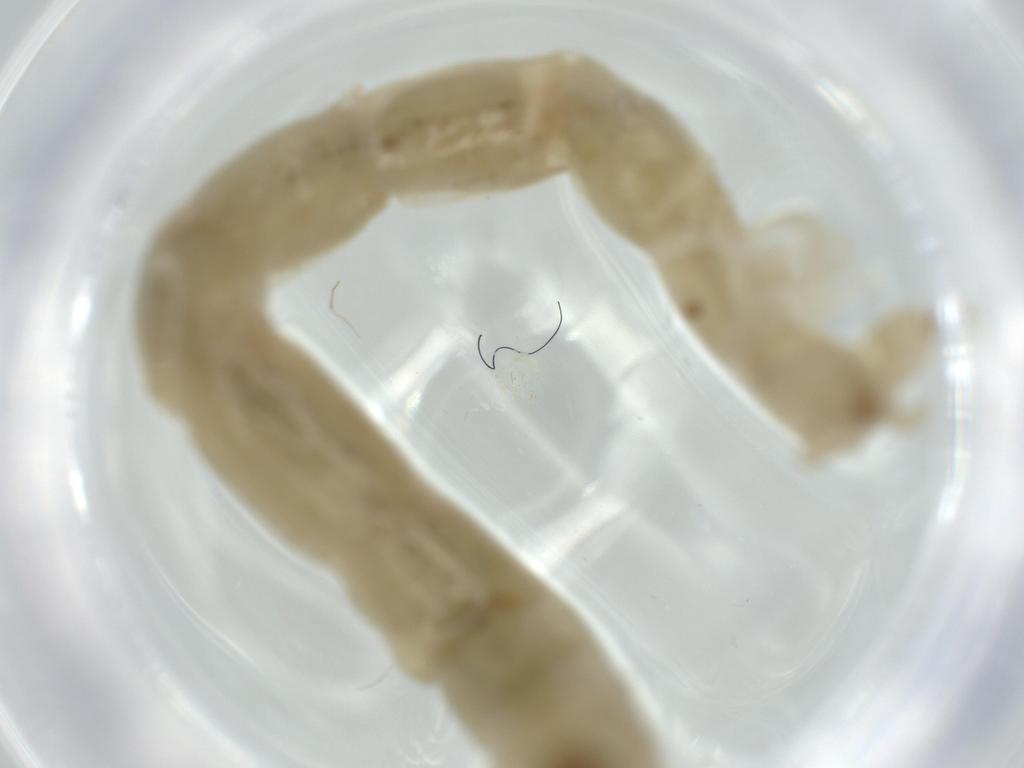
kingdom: Animalia
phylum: Arthropoda
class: Insecta
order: Diptera
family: Chironomidae
